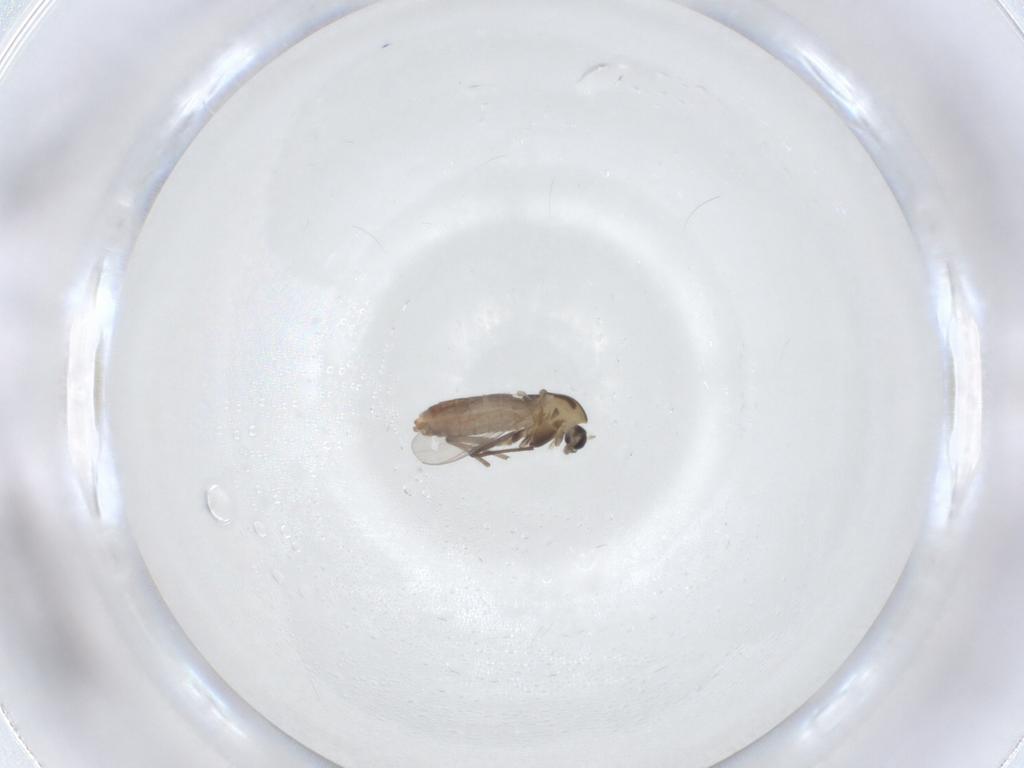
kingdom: Animalia
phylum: Arthropoda
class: Insecta
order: Diptera
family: Chironomidae
